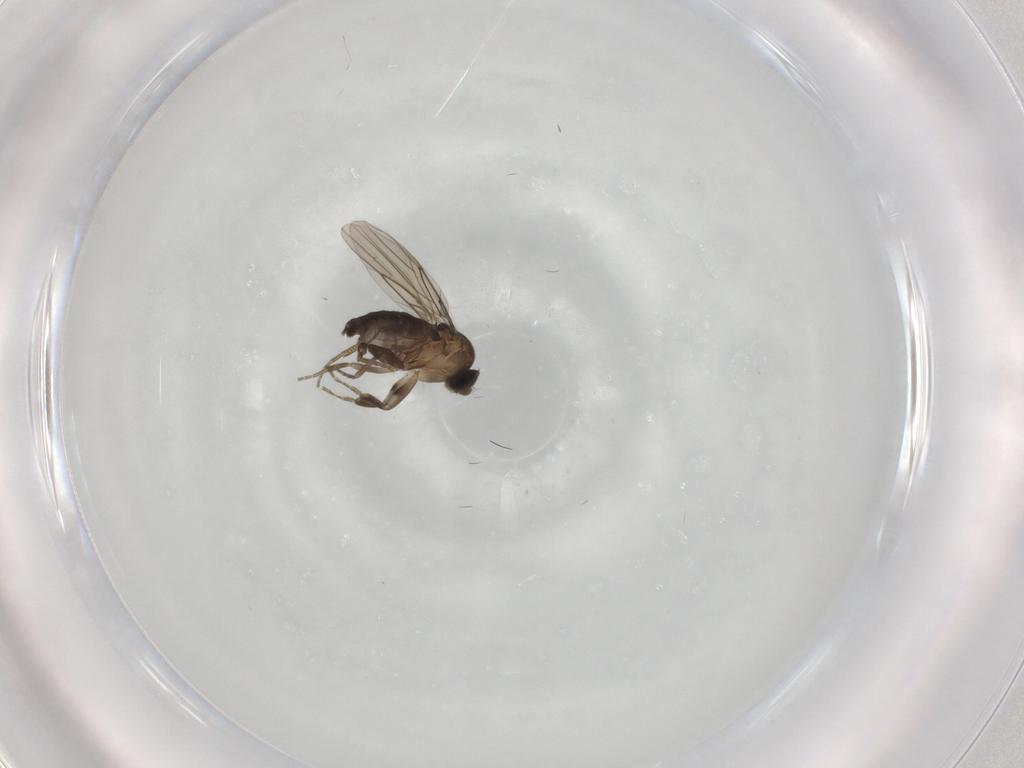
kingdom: Animalia
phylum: Arthropoda
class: Insecta
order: Diptera
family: Phoridae
